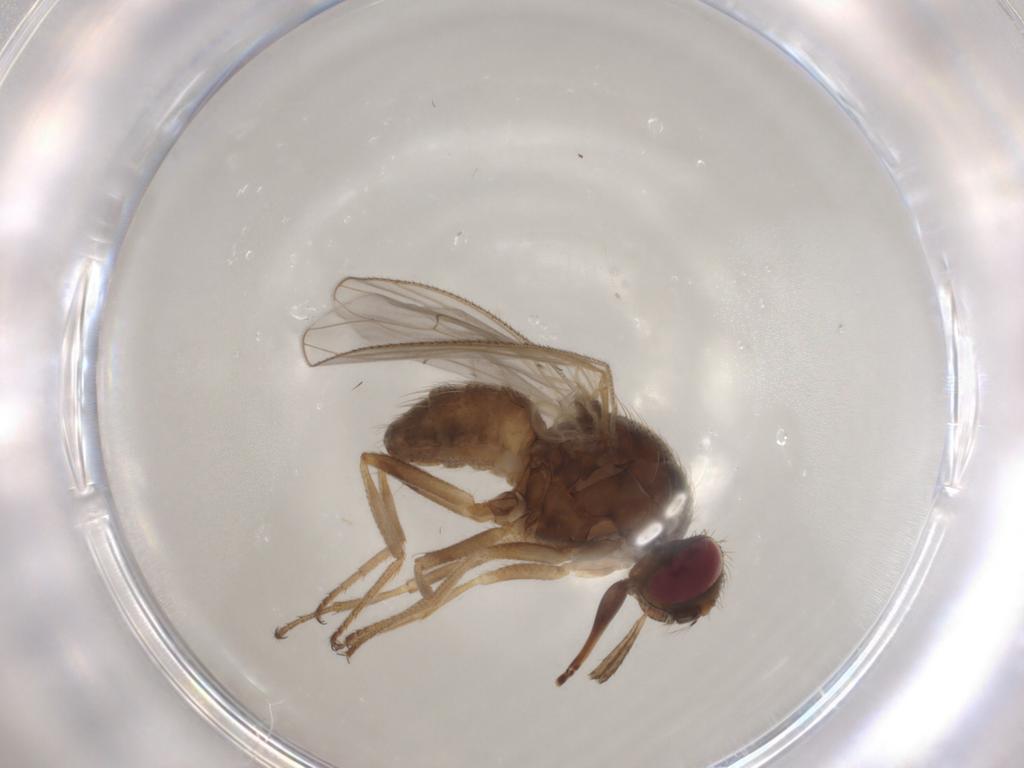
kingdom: Animalia
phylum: Arthropoda
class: Insecta
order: Diptera
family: Muscidae
